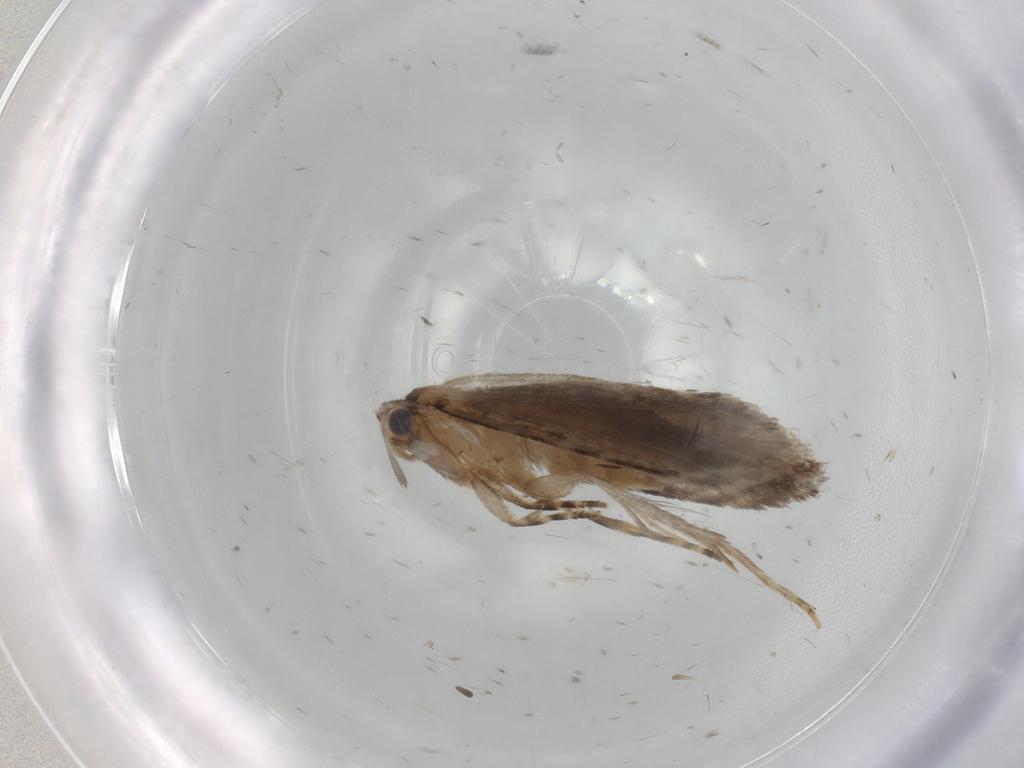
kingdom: Animalia
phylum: Arthropoda
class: Insecta
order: Lepidoptera
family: Tineidae
